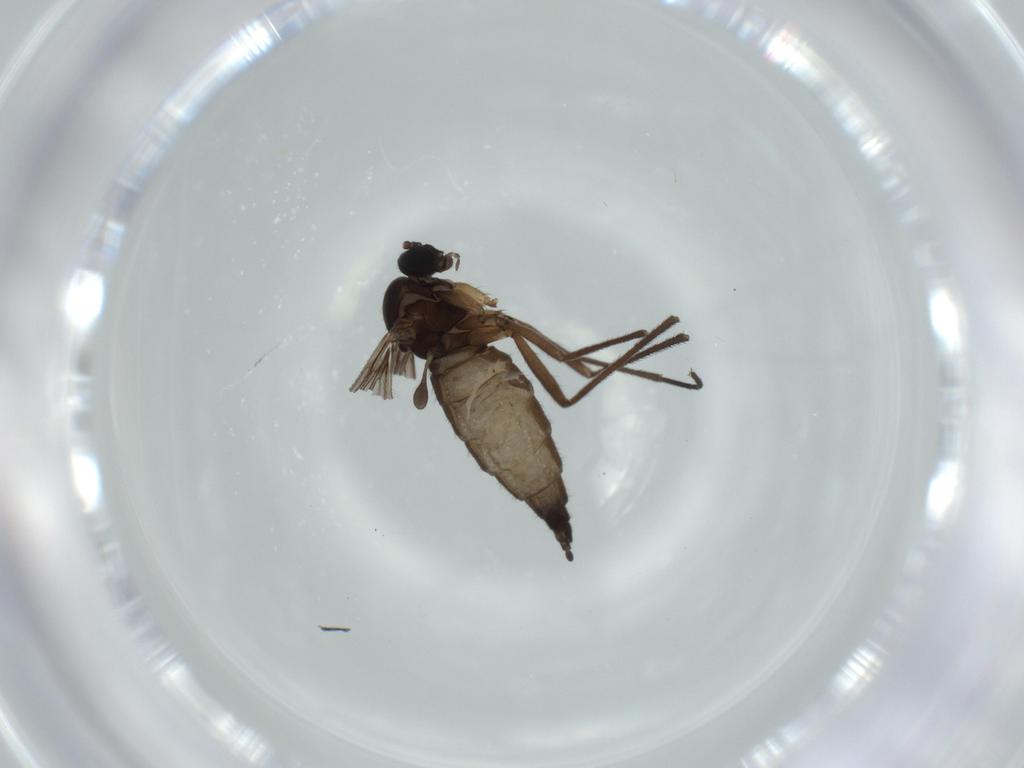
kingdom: Animalia
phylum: Arthropoda
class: Insecta
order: Diptera
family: Sciaridae
